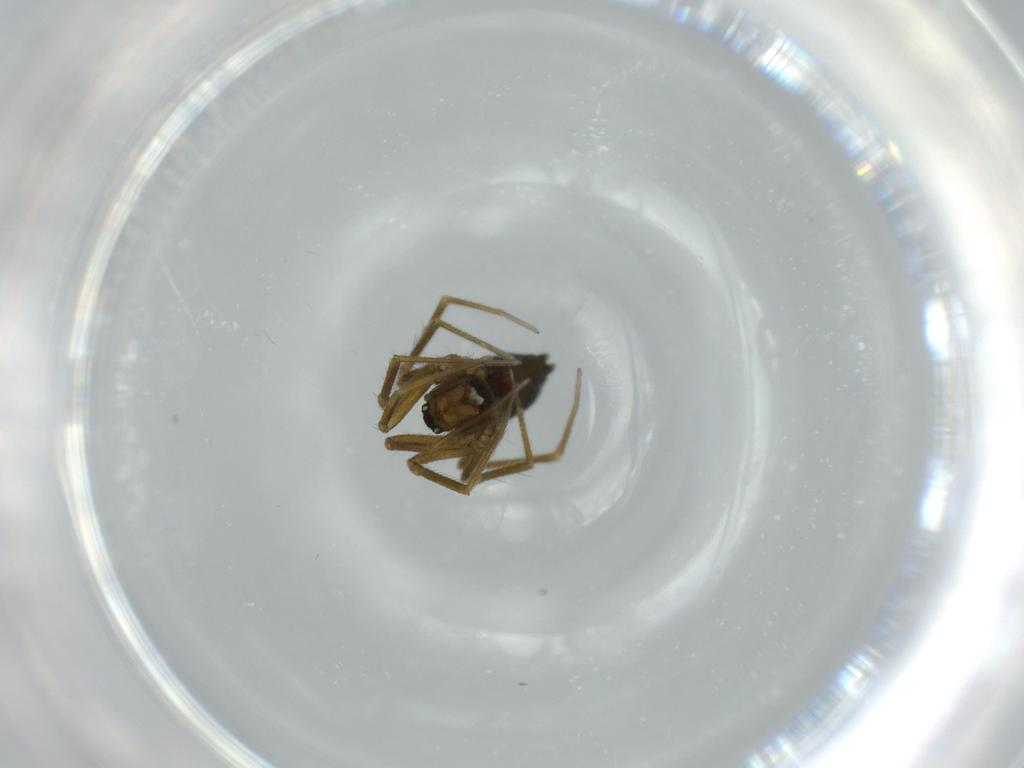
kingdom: Animalia
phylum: Arthropoda
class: Arachnida
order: Araneae
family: Linyphiidae
